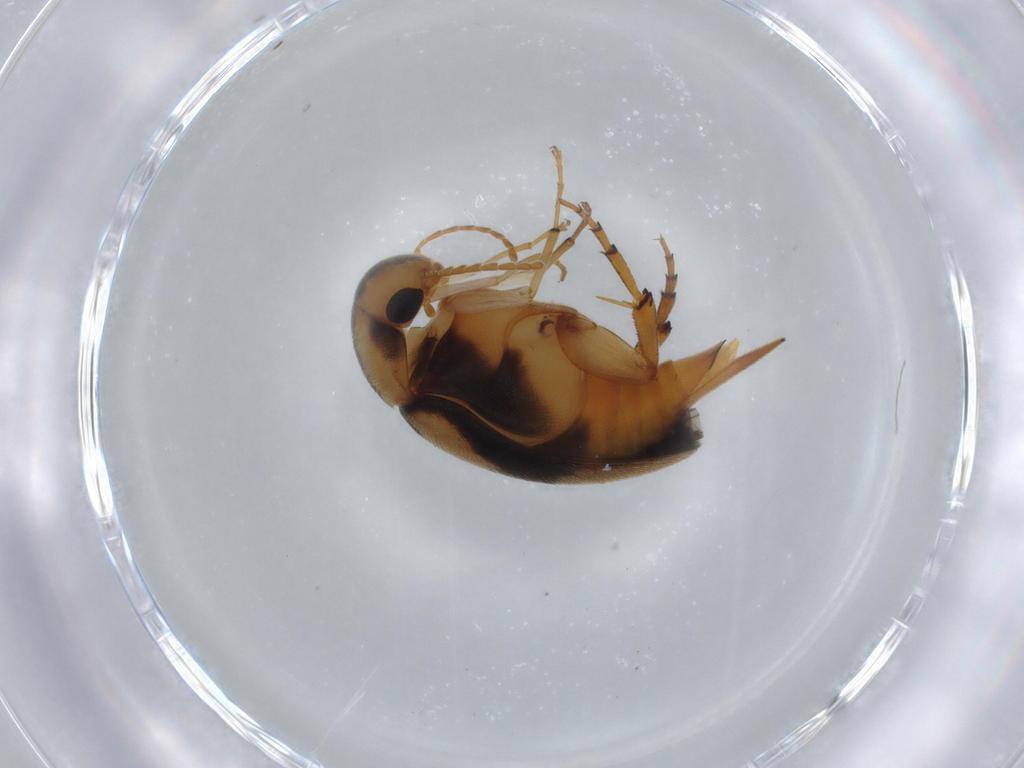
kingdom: Animalia
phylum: Arthropoda
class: Insecta
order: Coleoptera
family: Mordellidae
